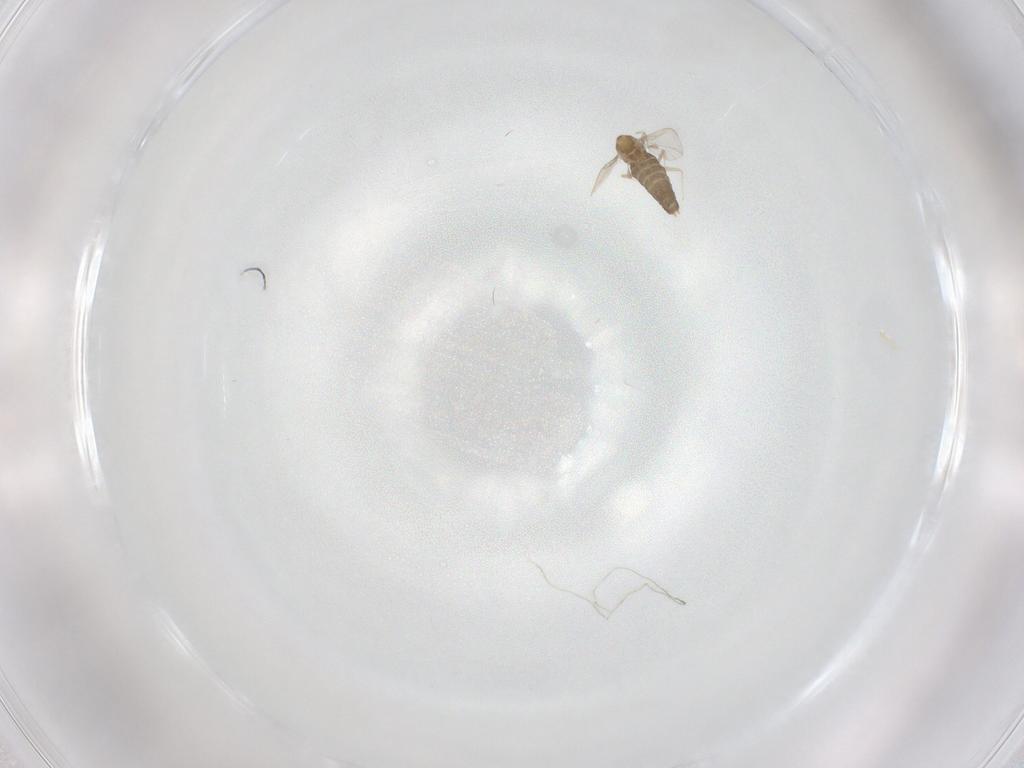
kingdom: Animalia
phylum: Arthropoda
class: Insecta
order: Diptera
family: Chironomidae
